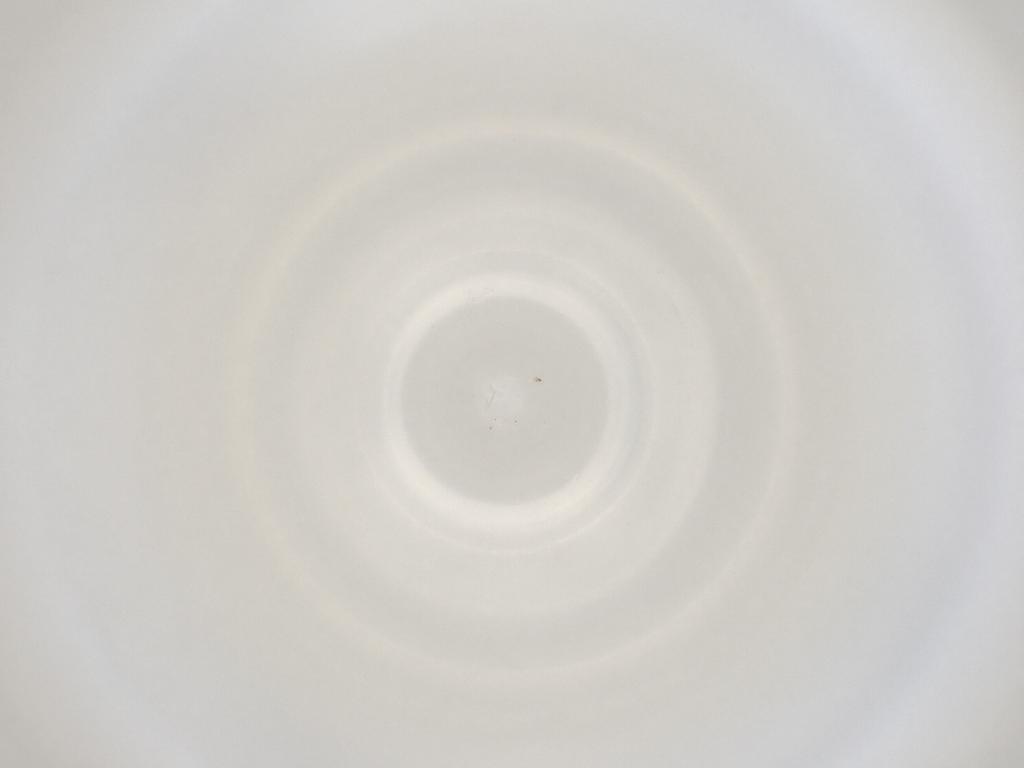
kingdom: Animalia
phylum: Arthropoda
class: Insecta
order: Diptera
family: Cecidomyiidae
